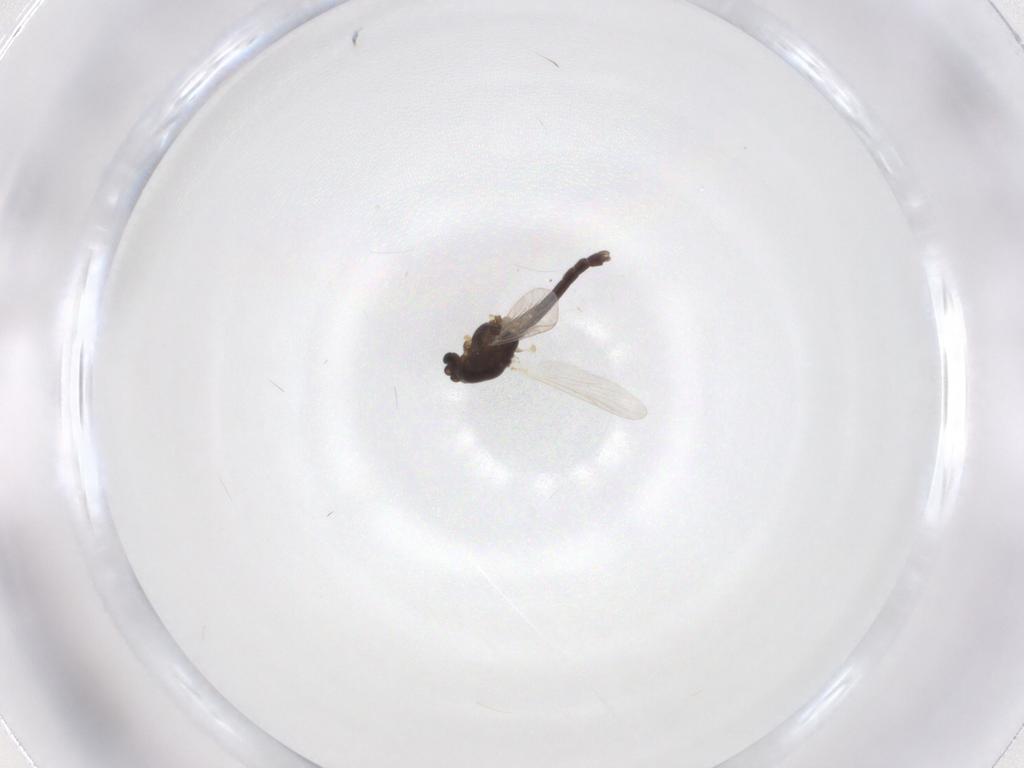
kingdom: Animalia
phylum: Arthropoda
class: Insecta
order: Diptera
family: Chironomidae
